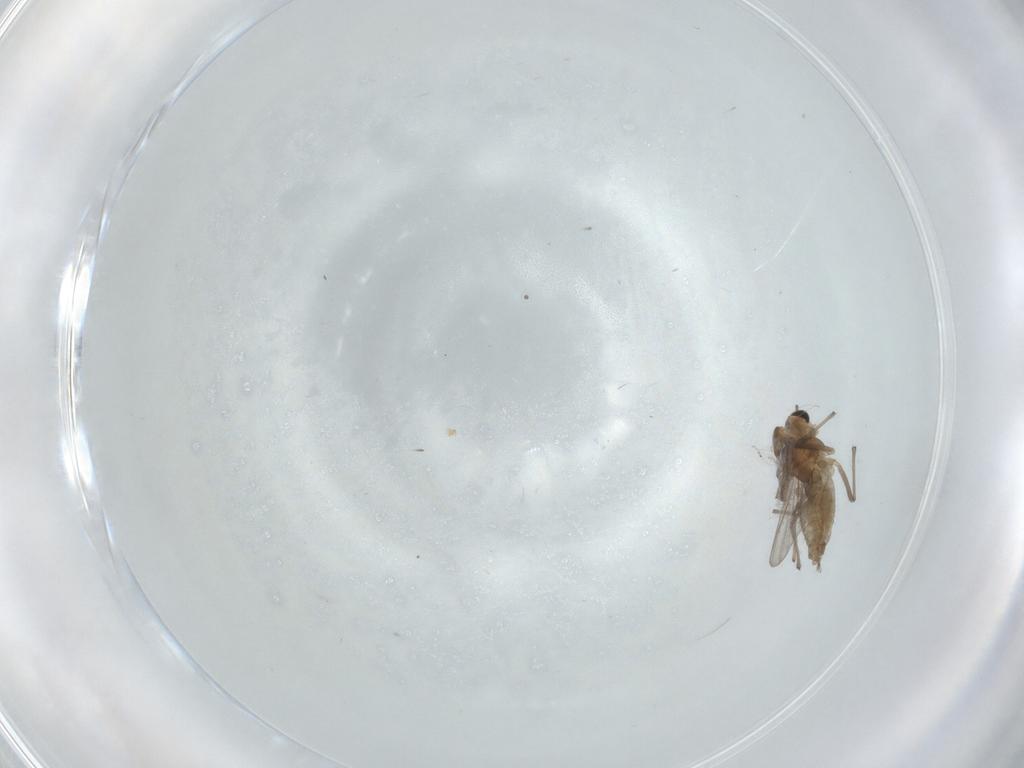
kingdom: Animalia
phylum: Arthropoda
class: Insecta
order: Diptera
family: Chironomidae
